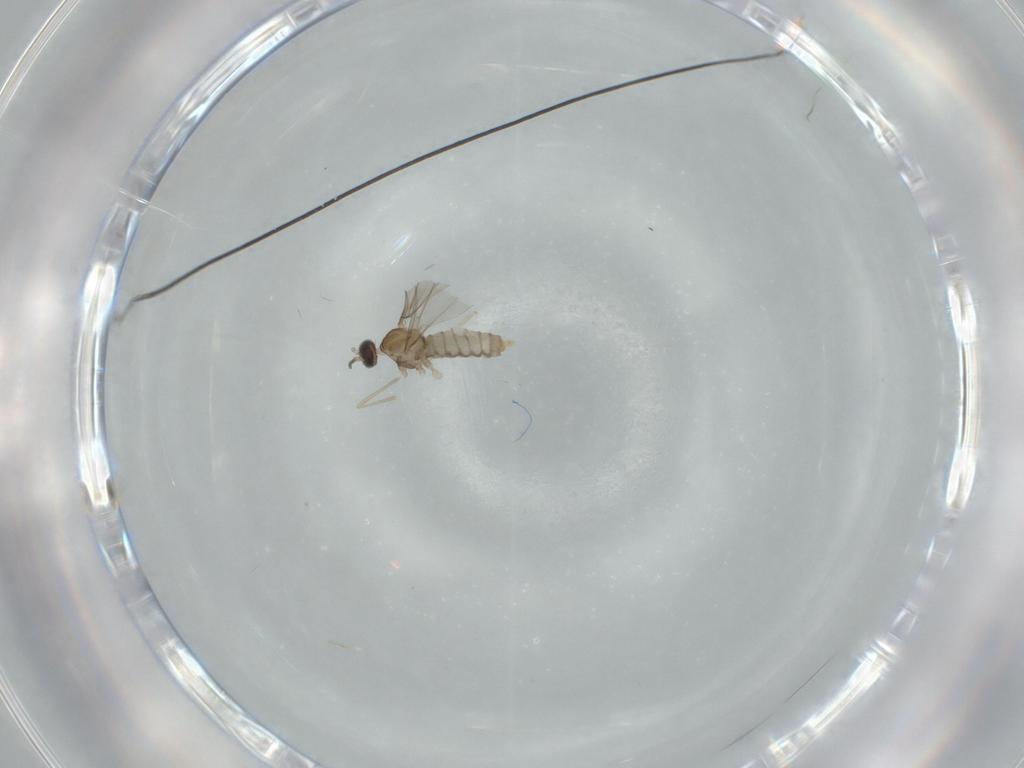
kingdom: Animalia
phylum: Arthropoda
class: Insecta
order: Diptera
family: Cecidomyiidae
